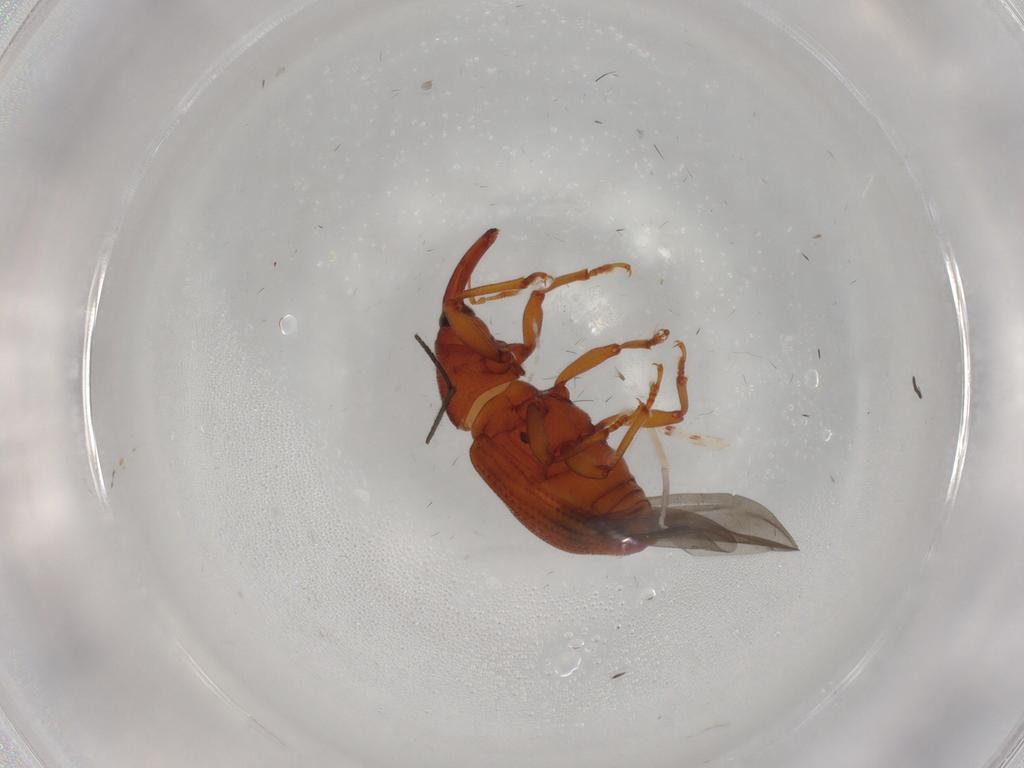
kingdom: Animalia
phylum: Arthropoda
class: Insecta
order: Coleoptera
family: Curculionidae
